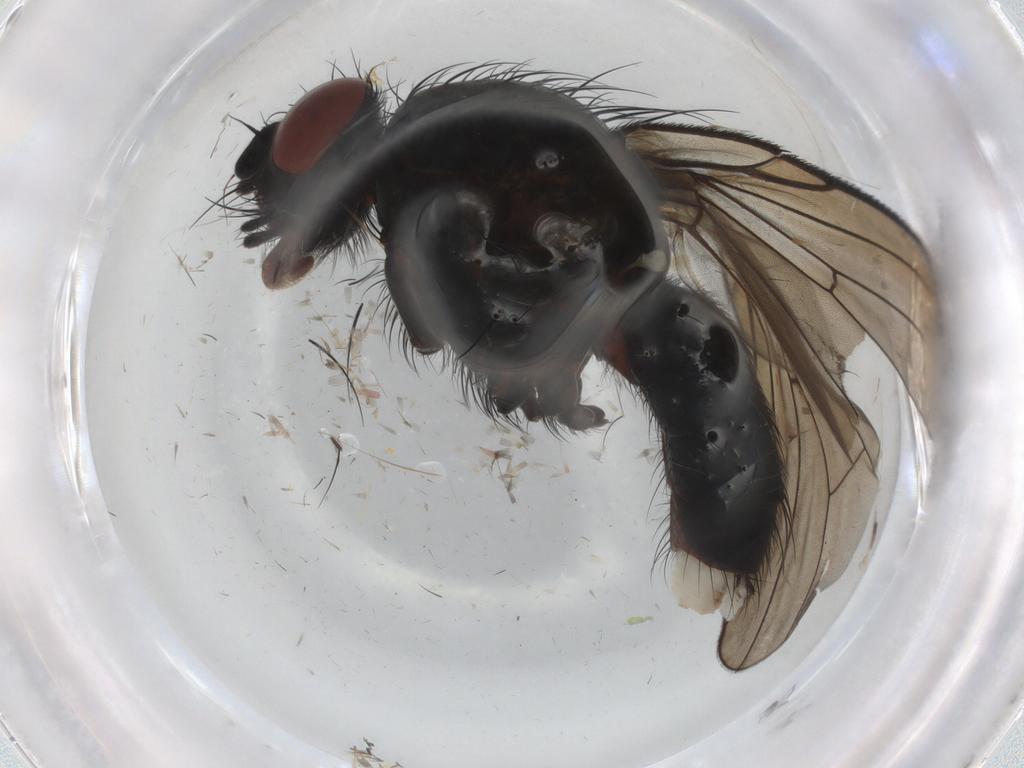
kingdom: Animalia
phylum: Arthropoda
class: Insecta
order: Diptera
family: Anthomyiidae
